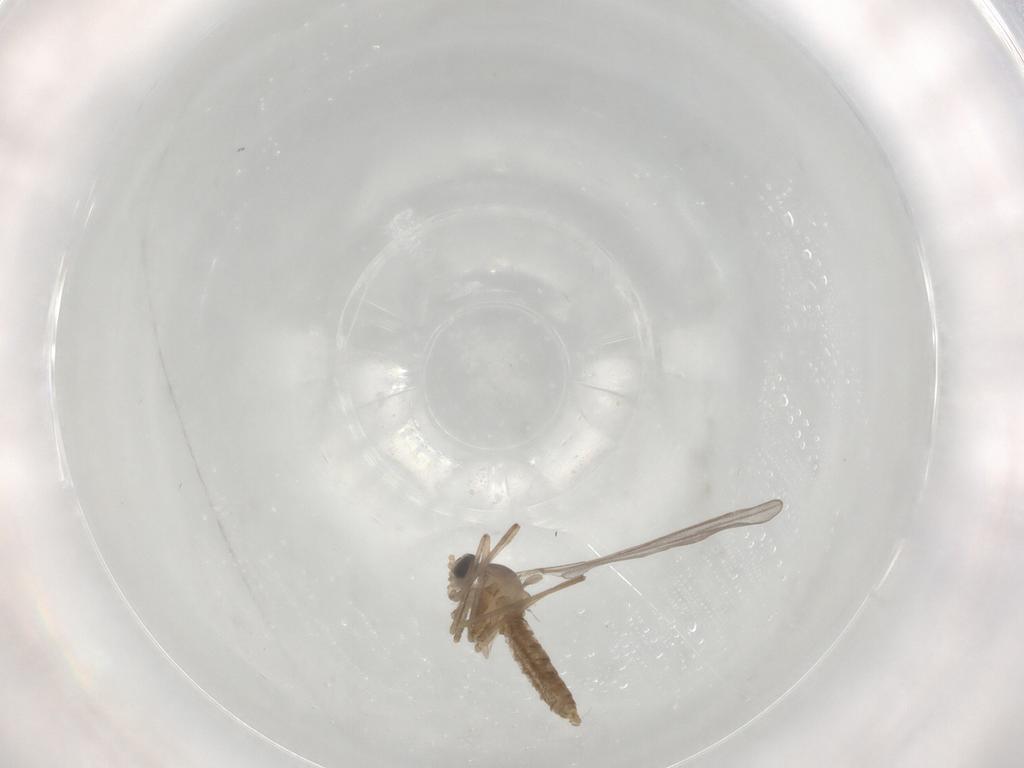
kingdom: Animalia
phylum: Arthropoda
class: Insecta
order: Diptera
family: Cecidomyiidae
